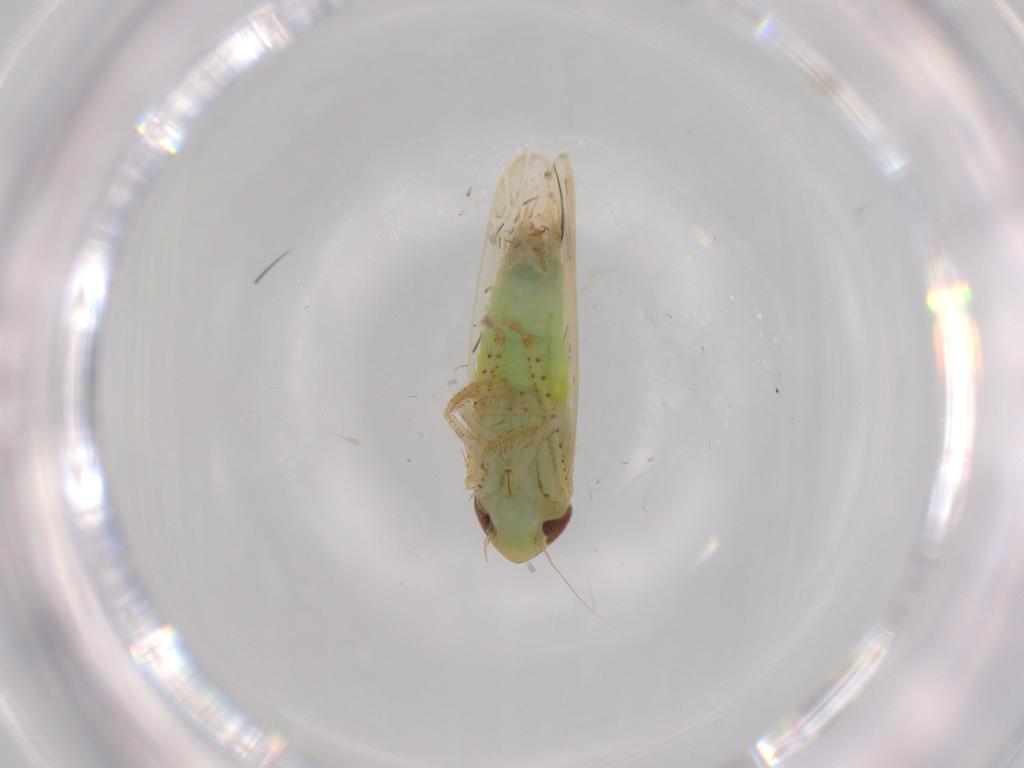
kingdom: Animalia
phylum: Arthropoda
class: Insecta
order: Hemiptera
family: Cicadellidae
